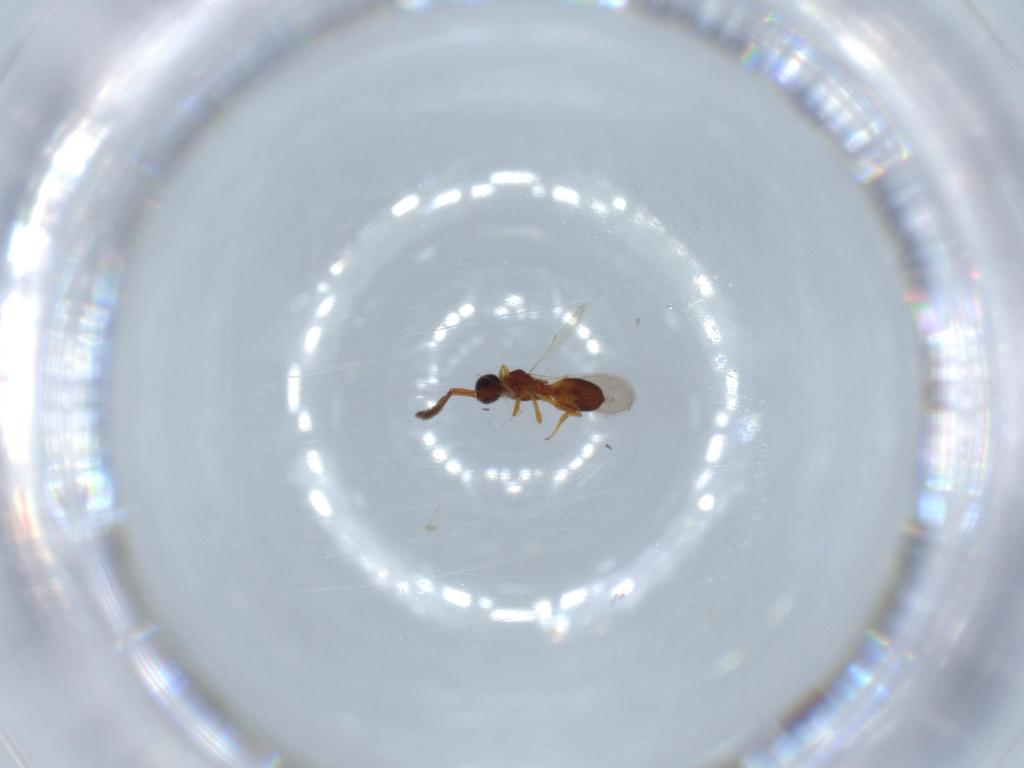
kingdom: Animalia
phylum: Arthropoda
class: Insecta
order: Hymenoptera
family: Diapriidae
